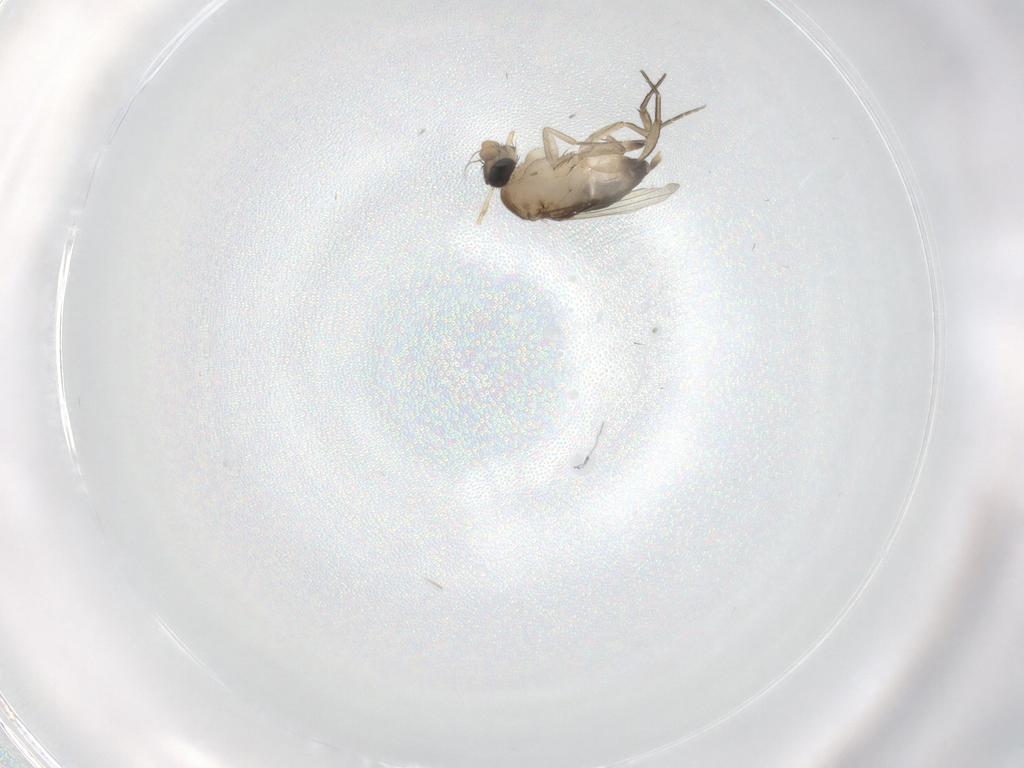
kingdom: Animalia
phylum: Arthropoda
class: Insecta
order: Diptera
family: Phoridae
